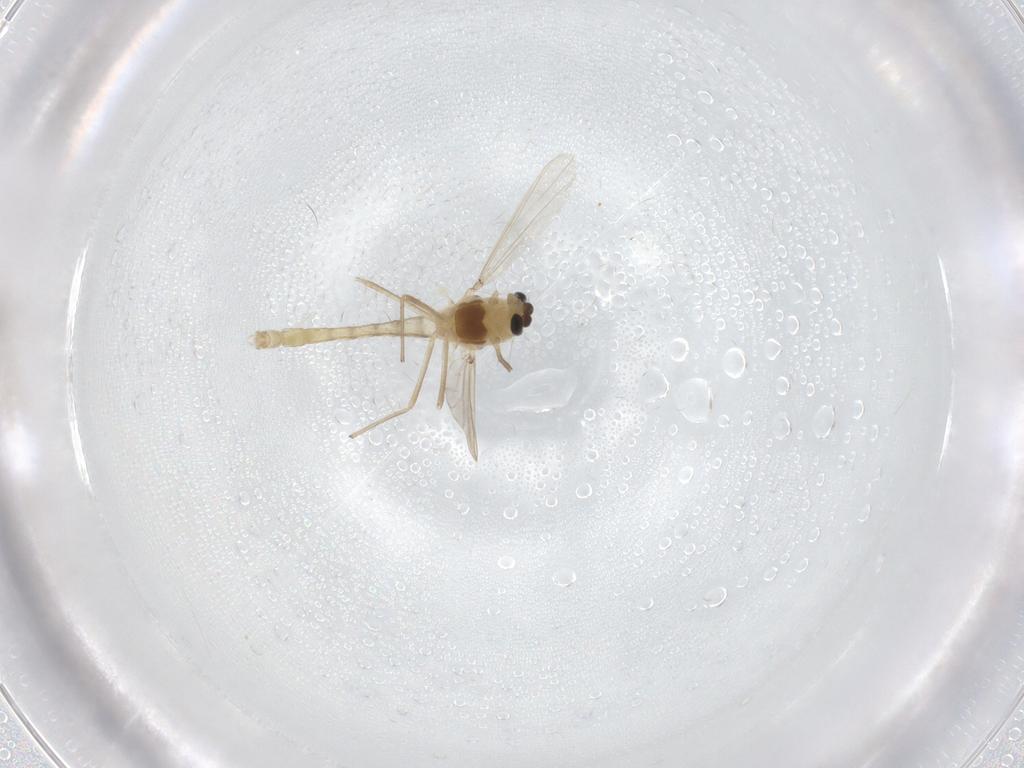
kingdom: Animalia
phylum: Arthropoda
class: Insecta
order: Diptera
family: Chironomidae
